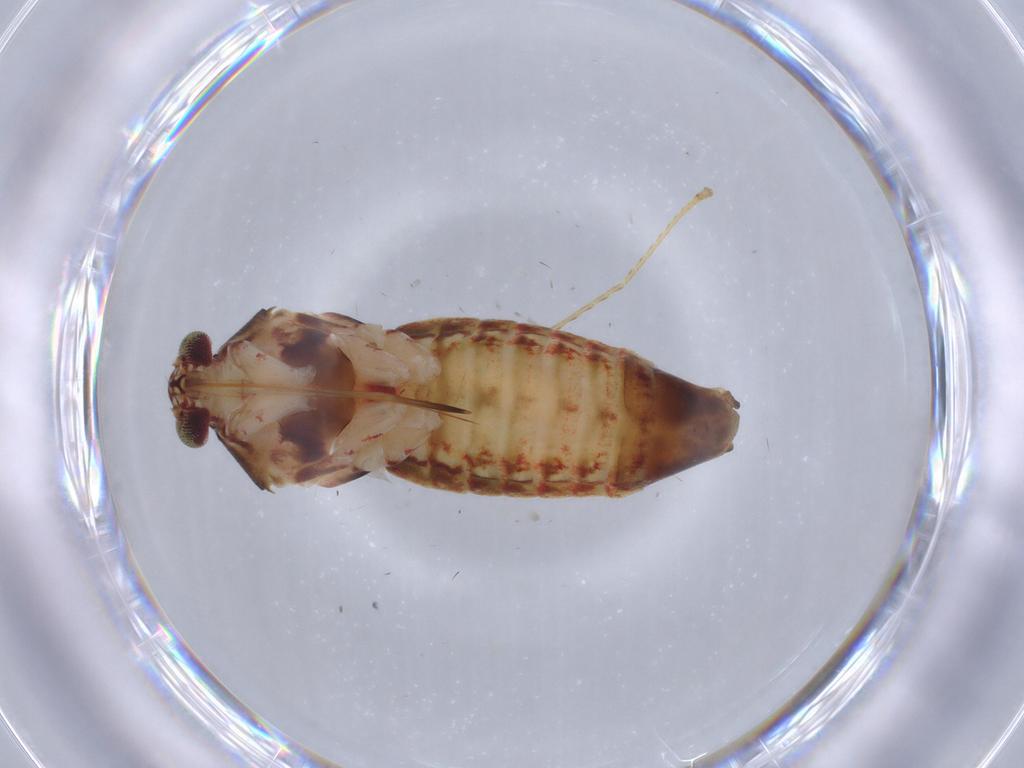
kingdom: Animalia
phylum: Arthropoda
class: Insecta
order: Hemiptera
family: Miridae
